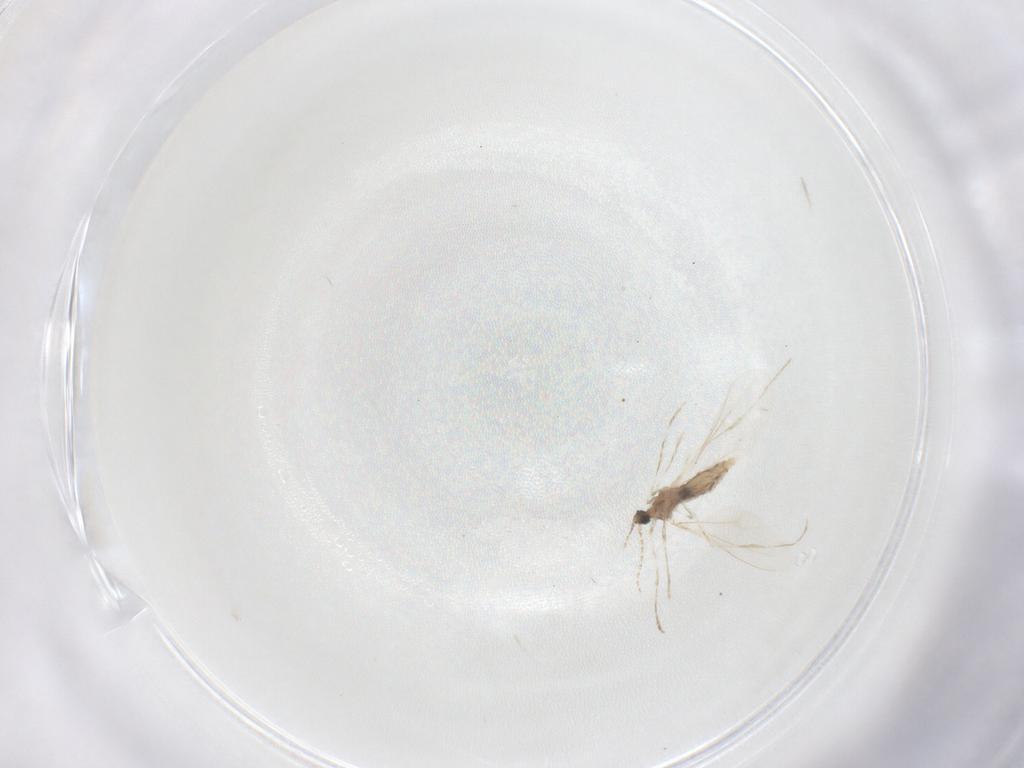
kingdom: Animalia
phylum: Arthropoda
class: Insecta
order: Diptera
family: Cecidomyiidae
